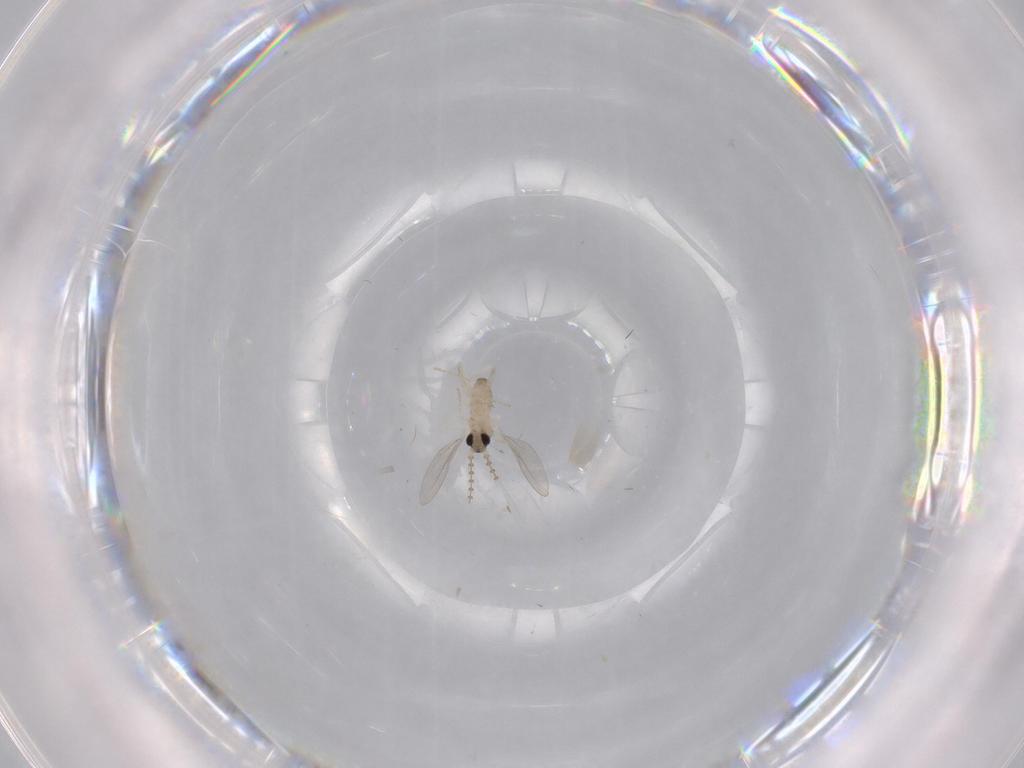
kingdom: Animalia
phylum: Arthropoda
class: Insecta
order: Diptera
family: Cecidomyiidae
